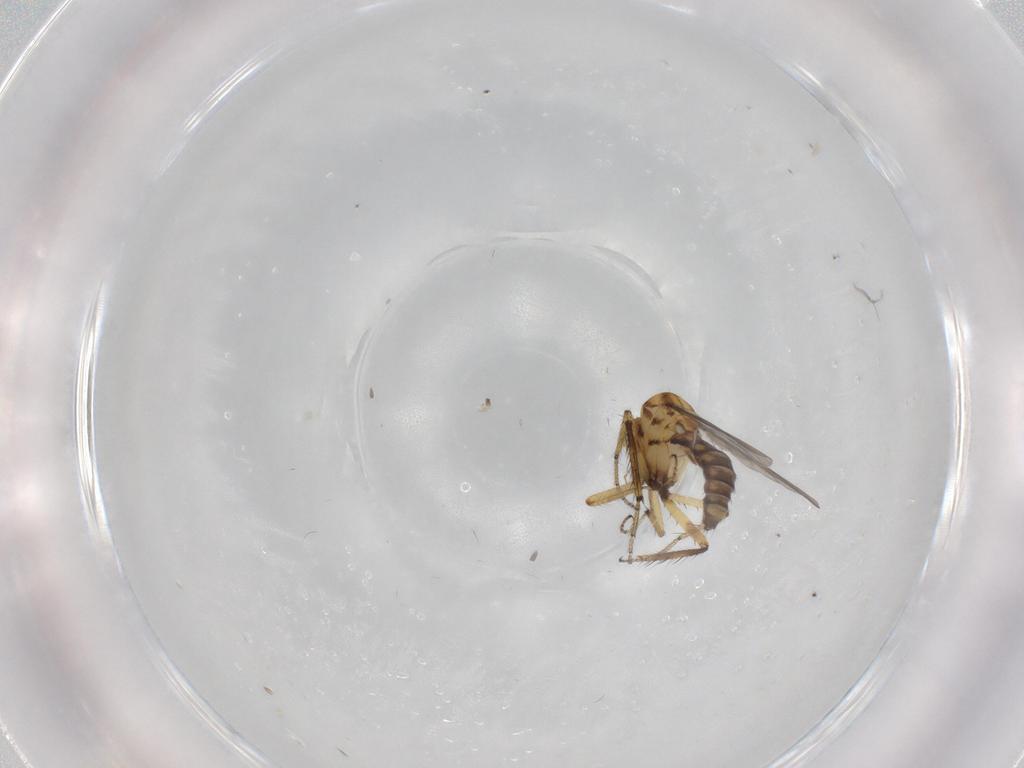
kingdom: Animalia
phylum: Arthropoda
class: Insecta
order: Diptera
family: Ceratopogonidae
